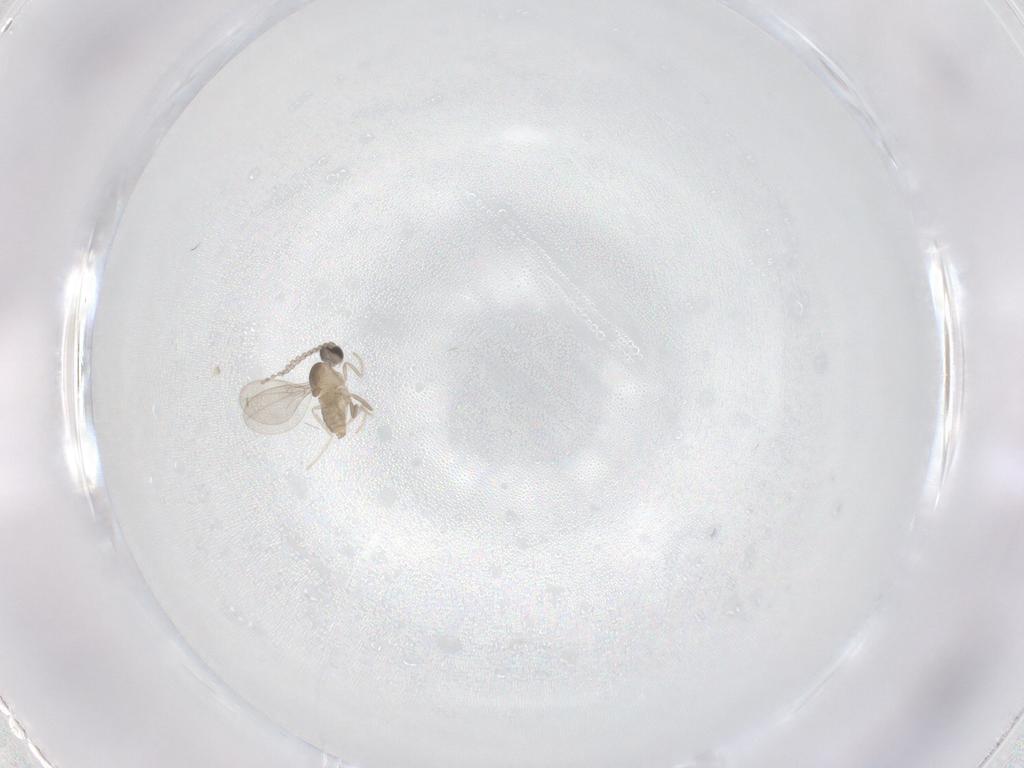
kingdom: Animalia
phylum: Arthropoda
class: Insecta
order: Diptera
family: Cecidomyiidae
